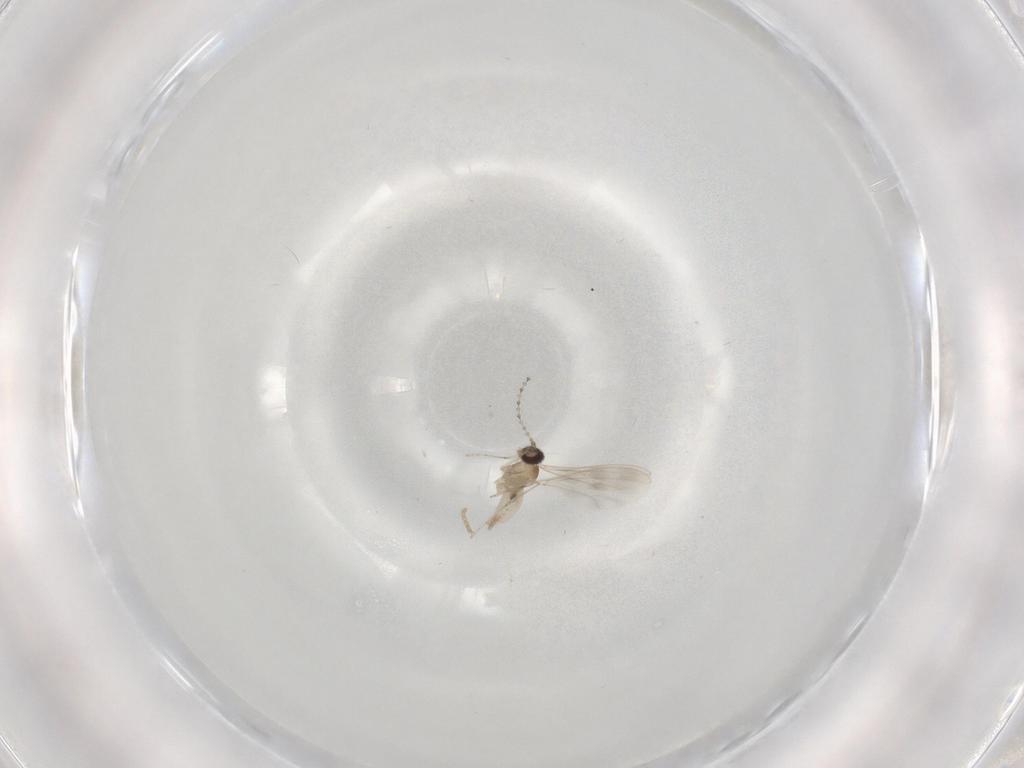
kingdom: Animalia
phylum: Arthropoda
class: Insecta
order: Diptera
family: Cecidomyiidae
